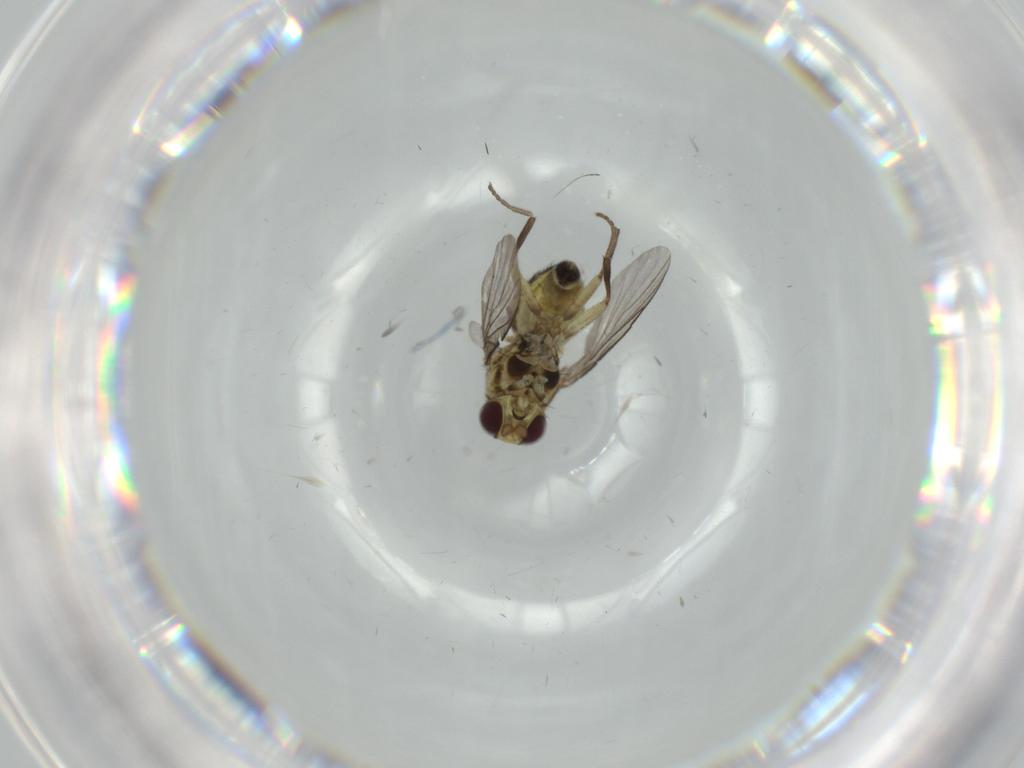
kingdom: Animalia
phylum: Arthropoda
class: Insecta
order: Diptera
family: Agromyzidae
